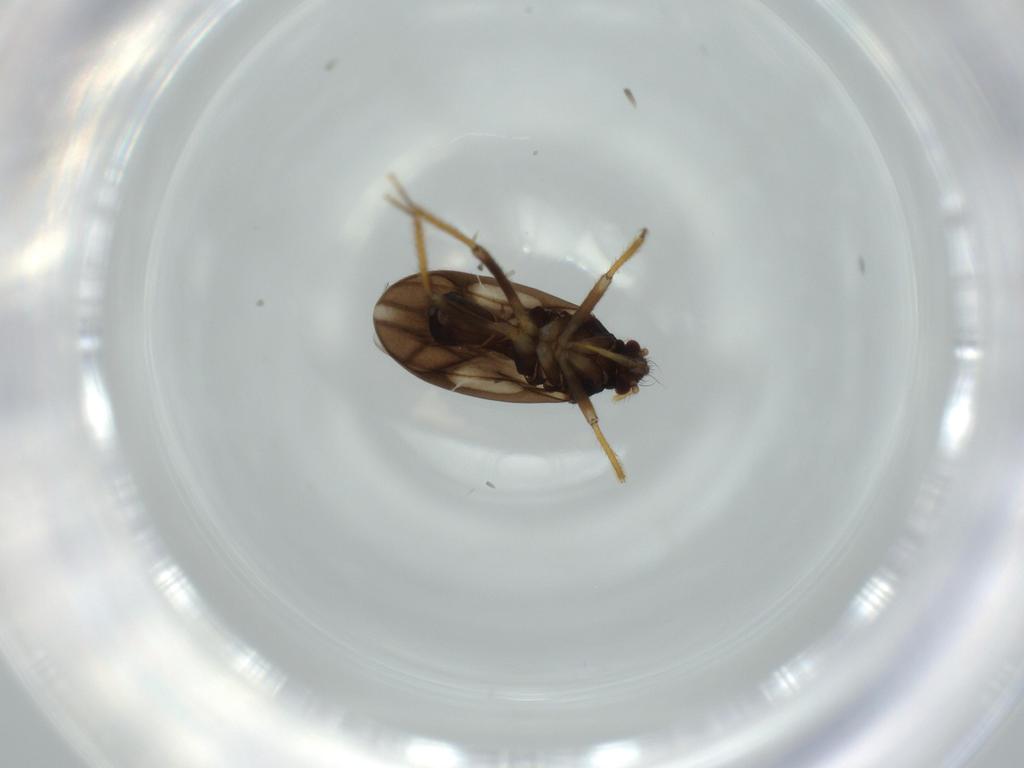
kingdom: Animalia
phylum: Arthropoda
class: Insecta
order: Hemiptera
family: Ceratocombidae
